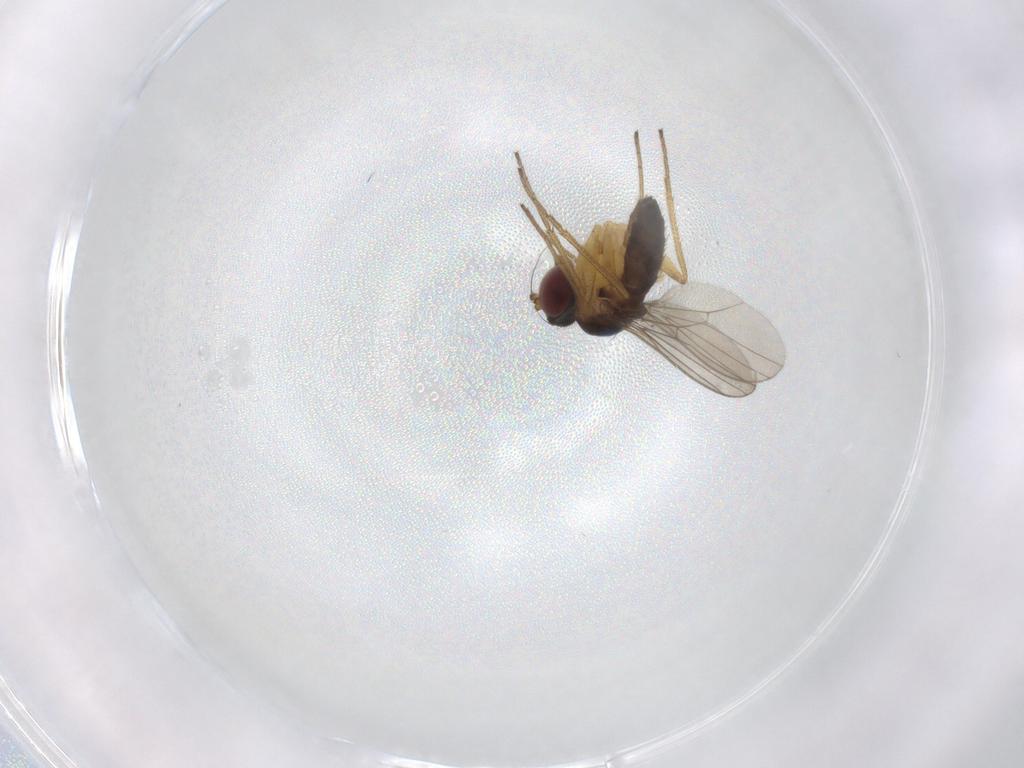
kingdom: Animalia
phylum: Arthropoda
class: Insecta
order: Diptera
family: Dolichopodidae
